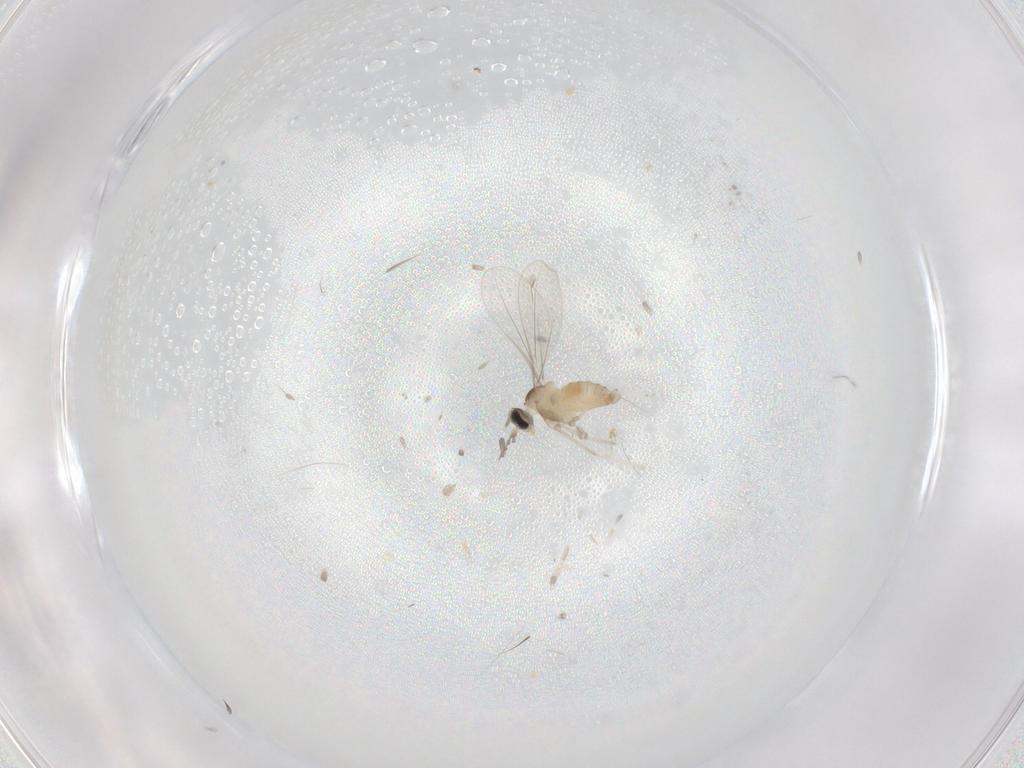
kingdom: Animalia
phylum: Arthropoda
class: Insecta
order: Diptera
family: Cecidomyiidae
